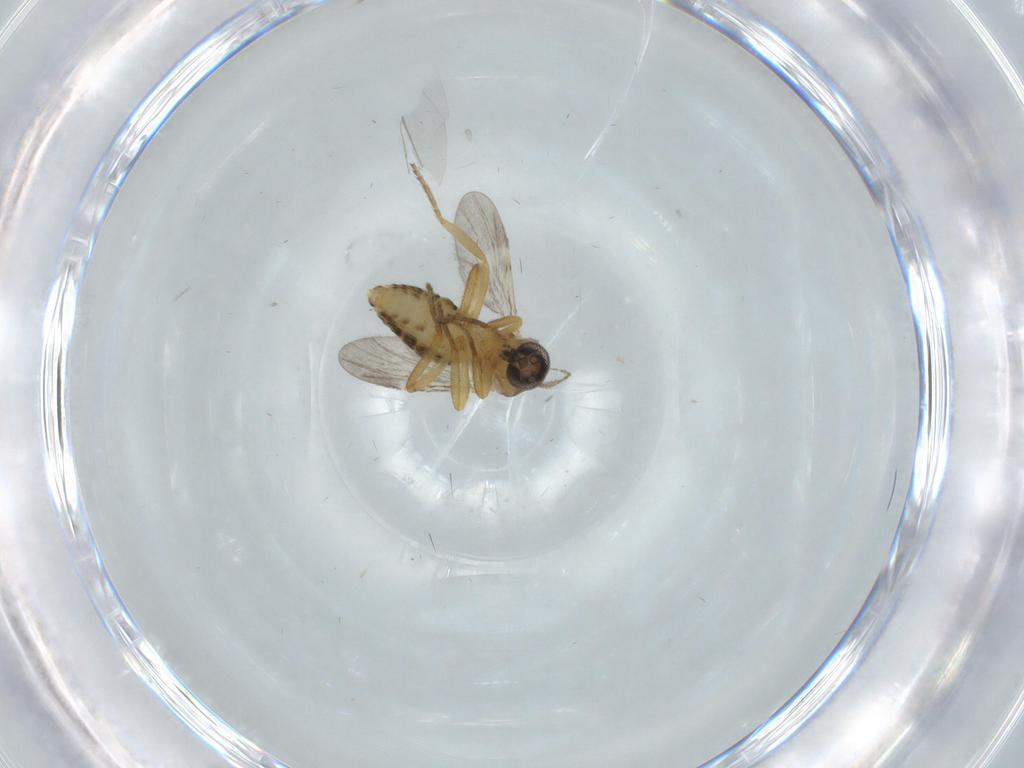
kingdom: Animalia
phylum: Arthropoda
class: Insecta
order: Diptera
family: Ceratopogonidae
